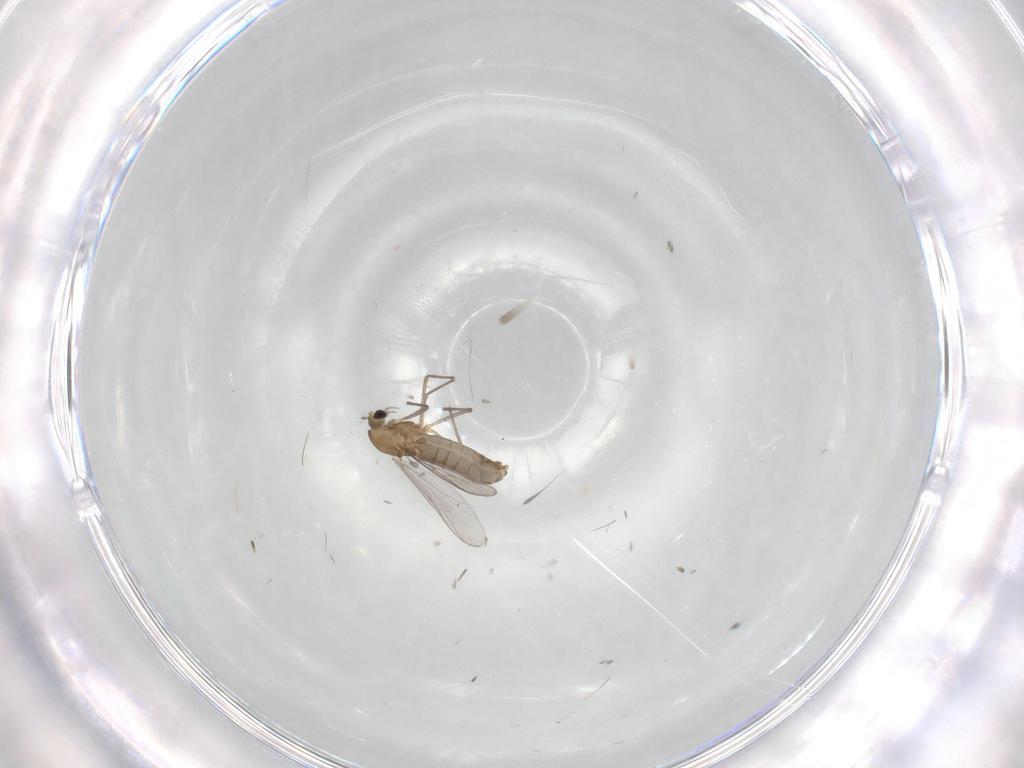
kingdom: Animalia
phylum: Arthropoda
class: Insecta
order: Diptera
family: Chironomidae
